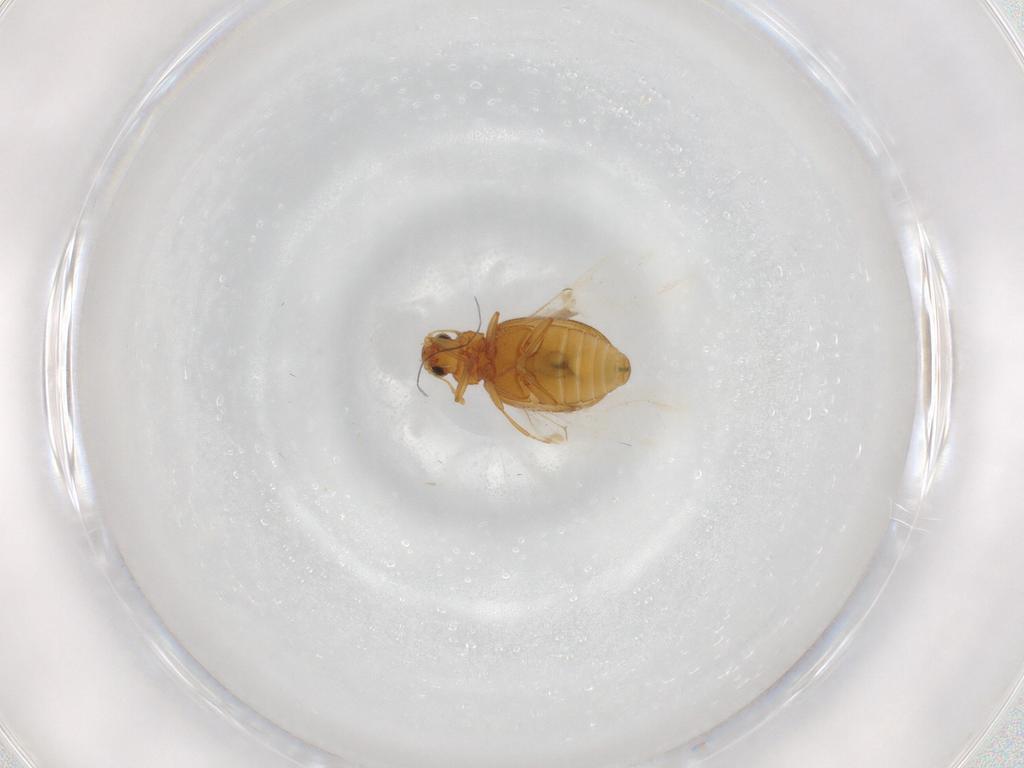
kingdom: Animalia
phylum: Arthropoda
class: Insecta
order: Coleoptera
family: Latridiidae
